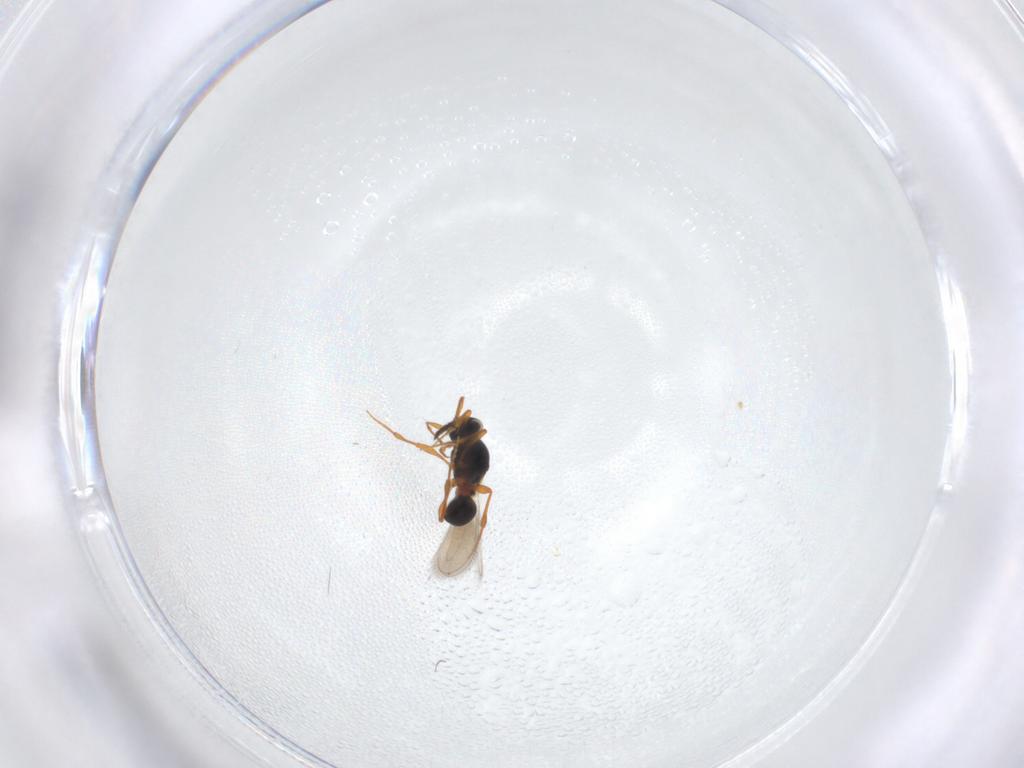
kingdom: Animalia
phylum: Arthropoda
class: Insecta
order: Hymenoptera
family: Platygastridae
